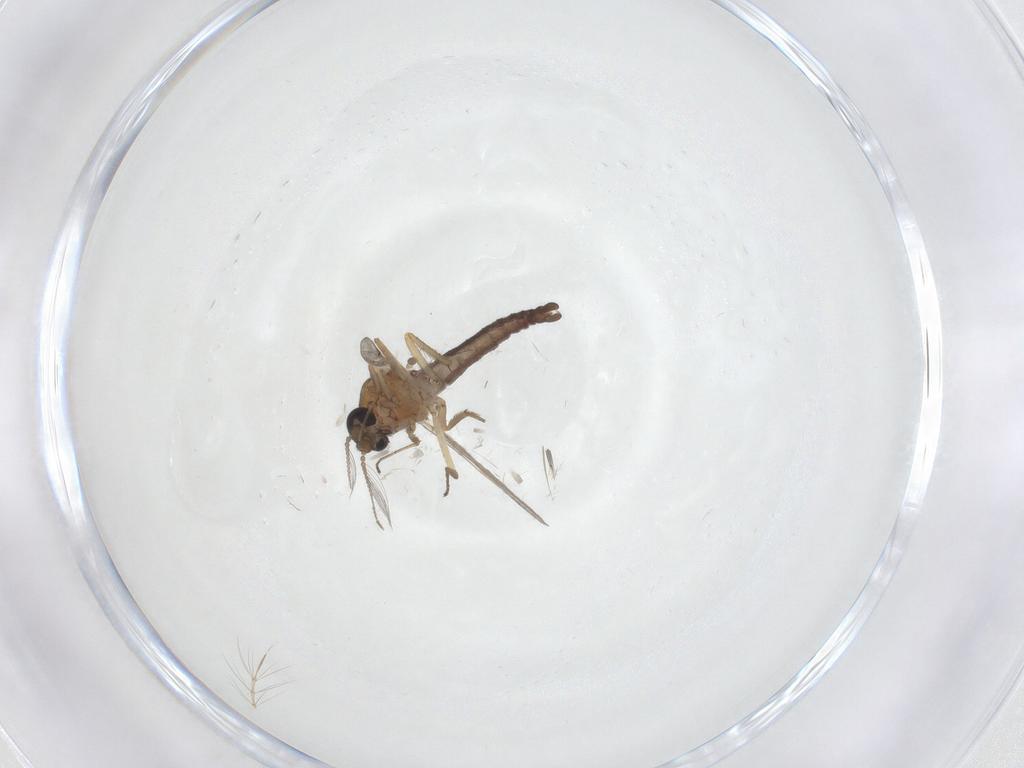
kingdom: Animalia
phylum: Arthropoda
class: Insecta
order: Diptera
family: Ceratopogonidae
